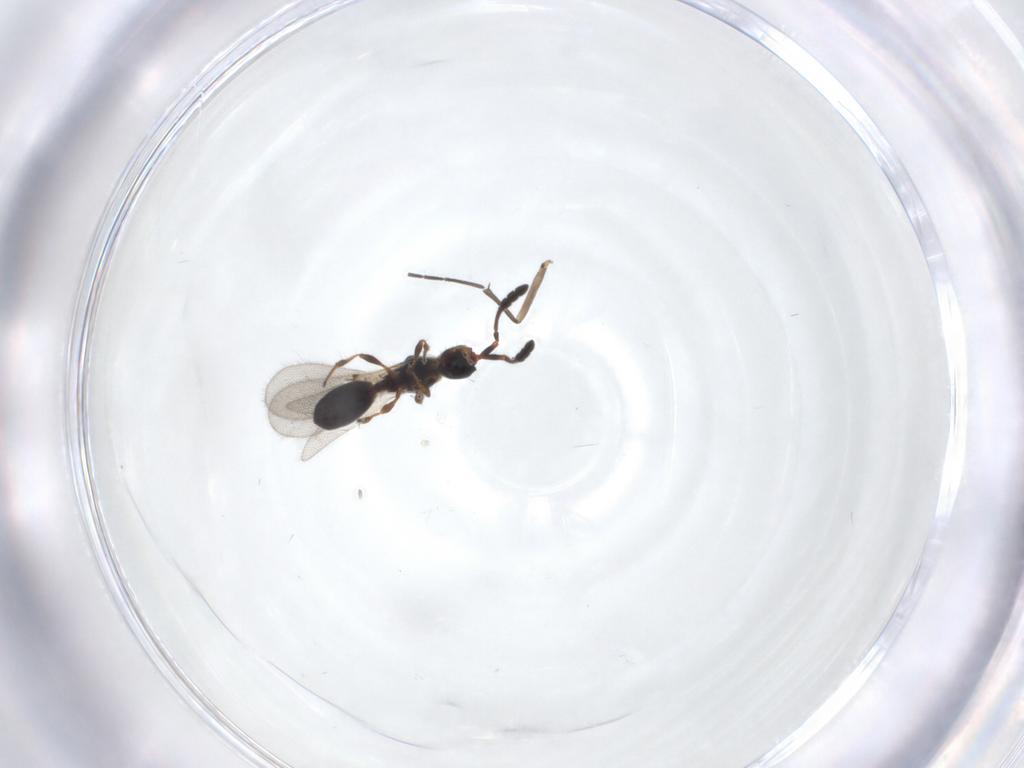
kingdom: Animalia
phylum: Arthropoda
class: Insecta
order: Hymenoptera
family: Diapriidae
